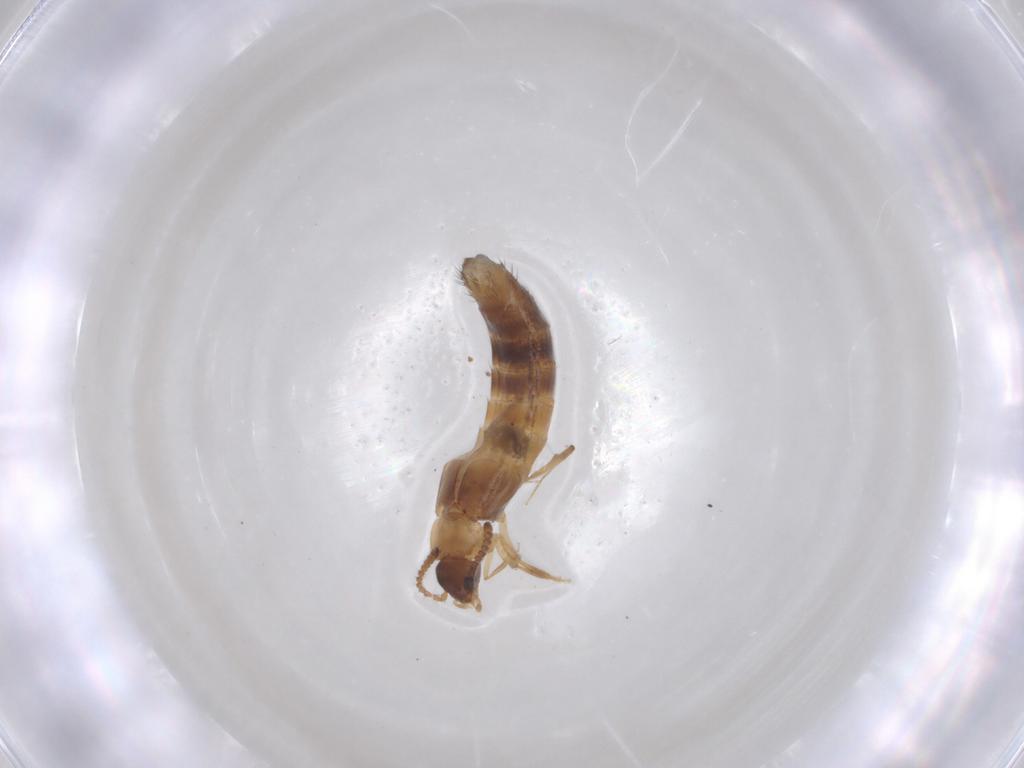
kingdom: Animalia
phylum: Arthropoda
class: Insecta
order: Coleoptera
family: Staphylinidae
